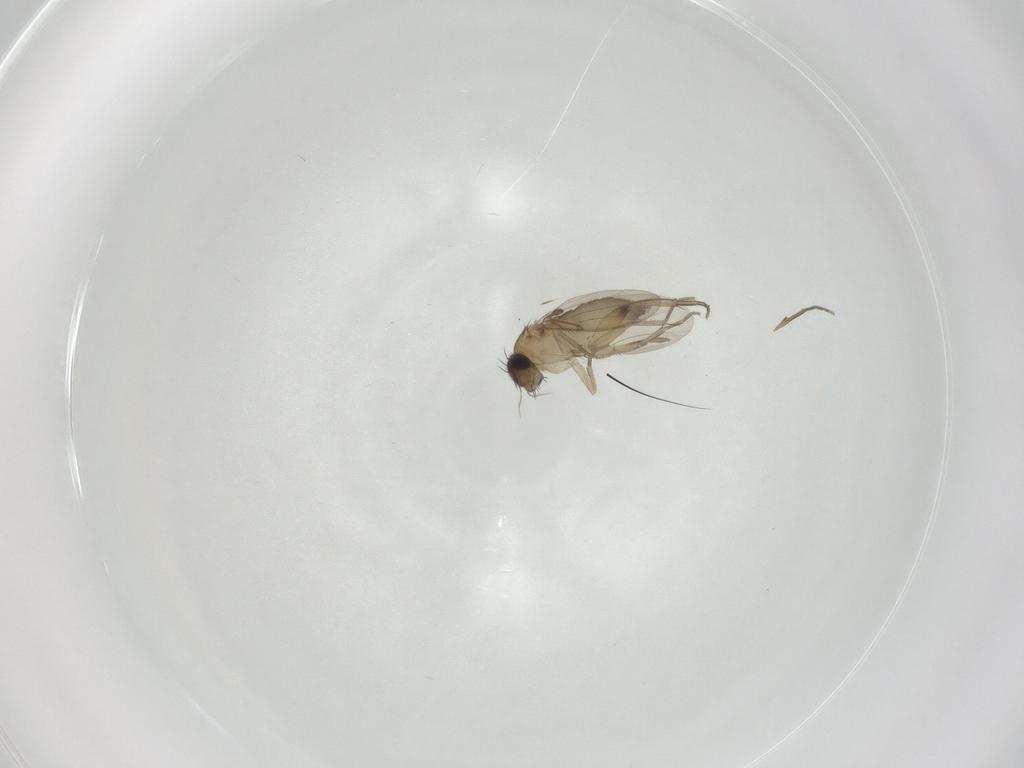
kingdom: Animalia
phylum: Arthropoda
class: Insecta
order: Diptera
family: Phoridae
